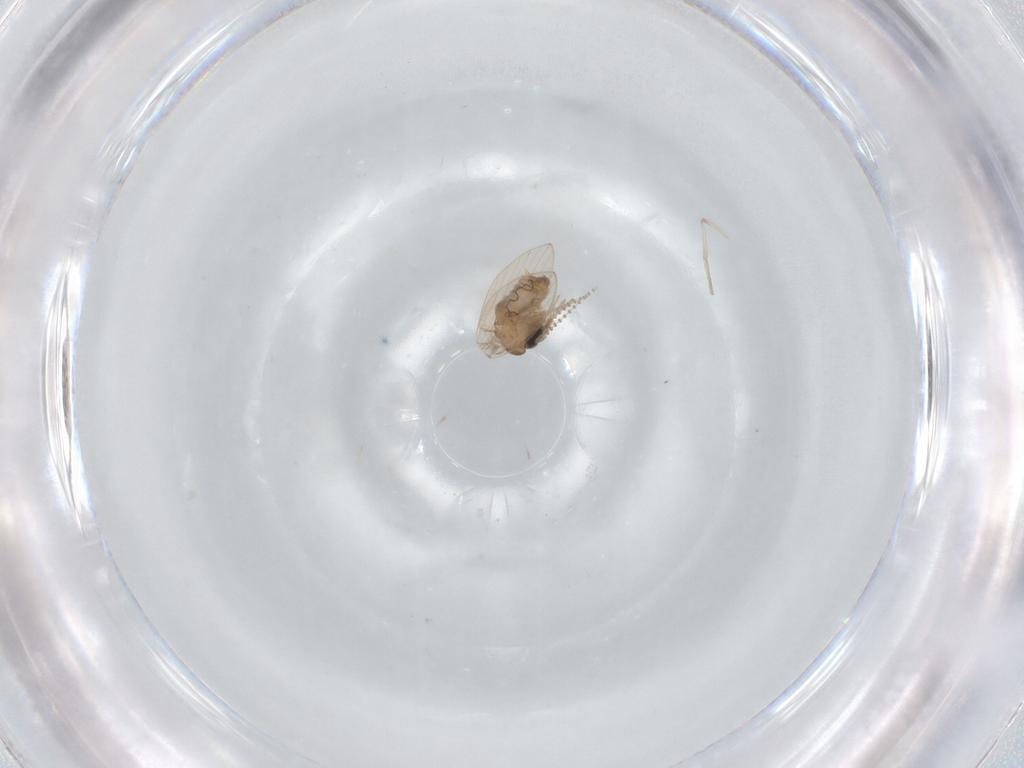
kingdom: Animalia
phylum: Arthropoda
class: Insecta
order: Diptera
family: Psychodidae
